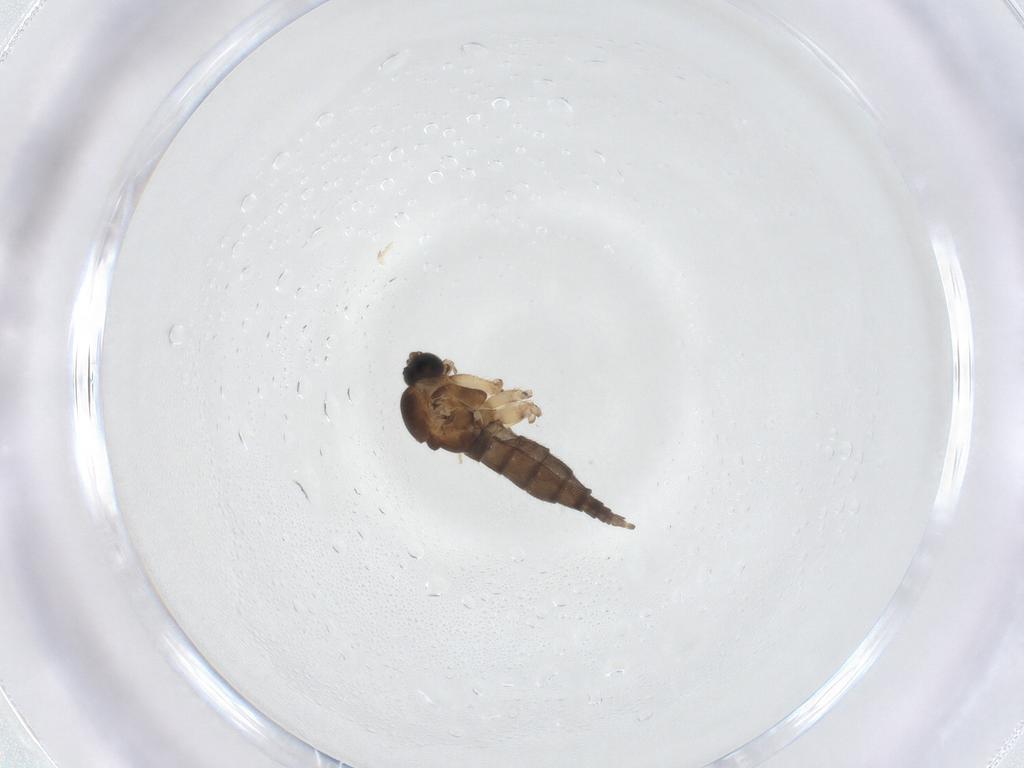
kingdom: Animalia
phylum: Arthropoda
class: Insecta
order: Diptera
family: Sciaridae
